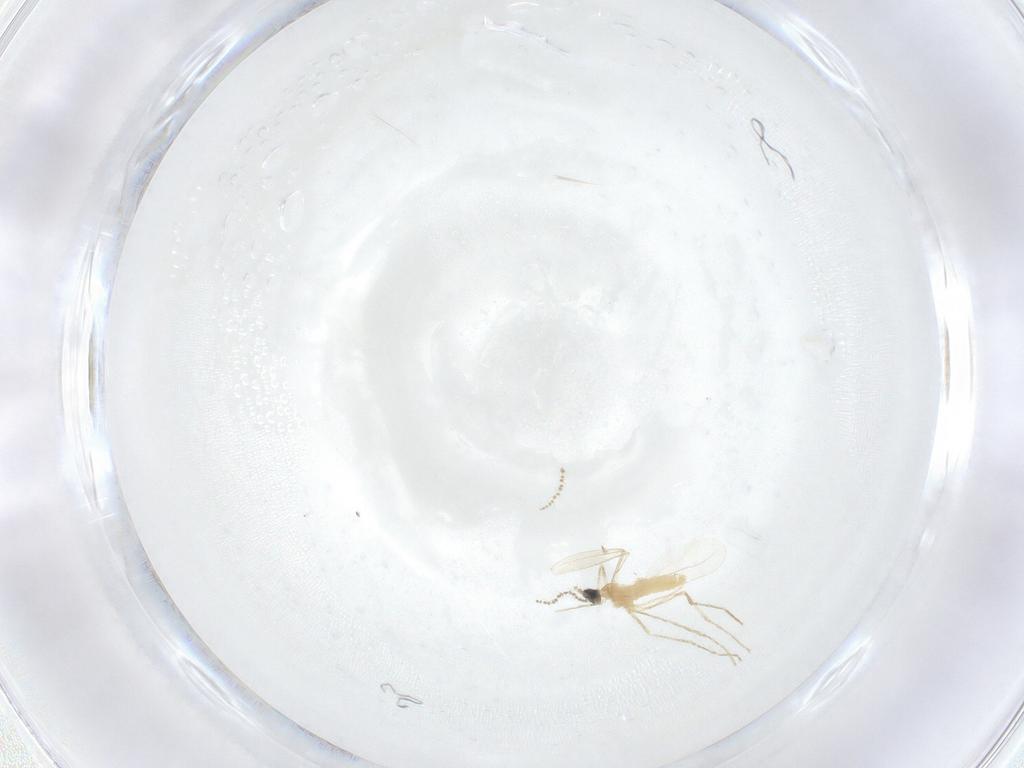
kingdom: Animalia
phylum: Arthropoda
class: Insecta
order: Diptera
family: Cecidomyiidae
